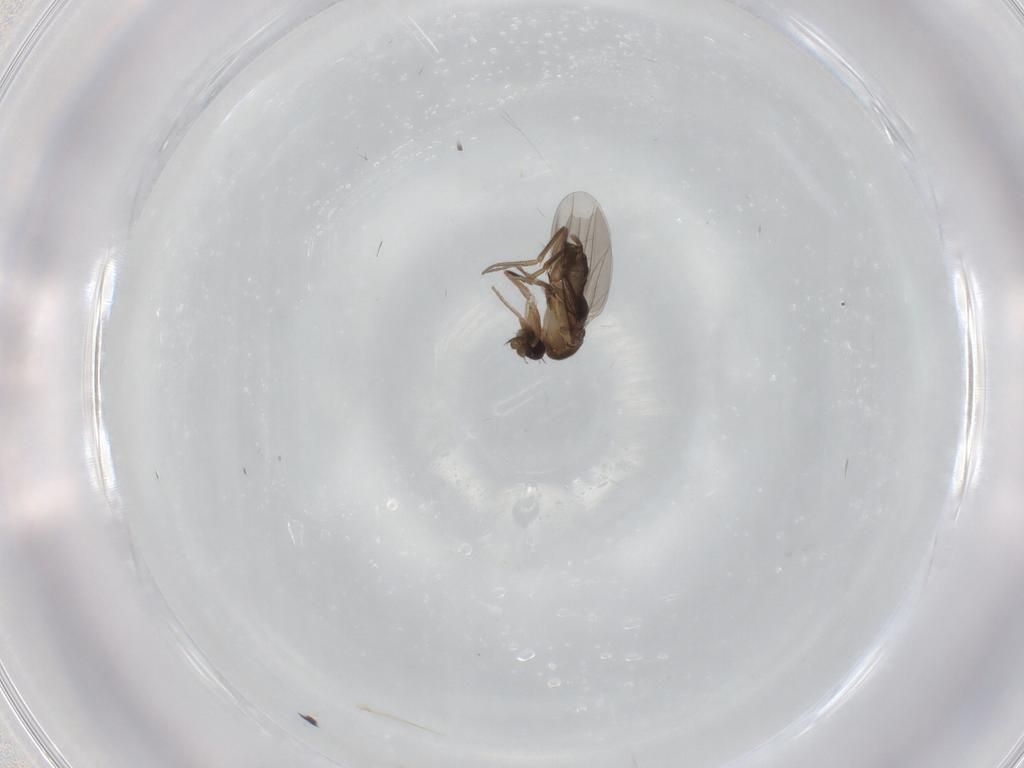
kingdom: Animalia
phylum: Arthropoda
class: Insecta
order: Diptera
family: Phoridae
